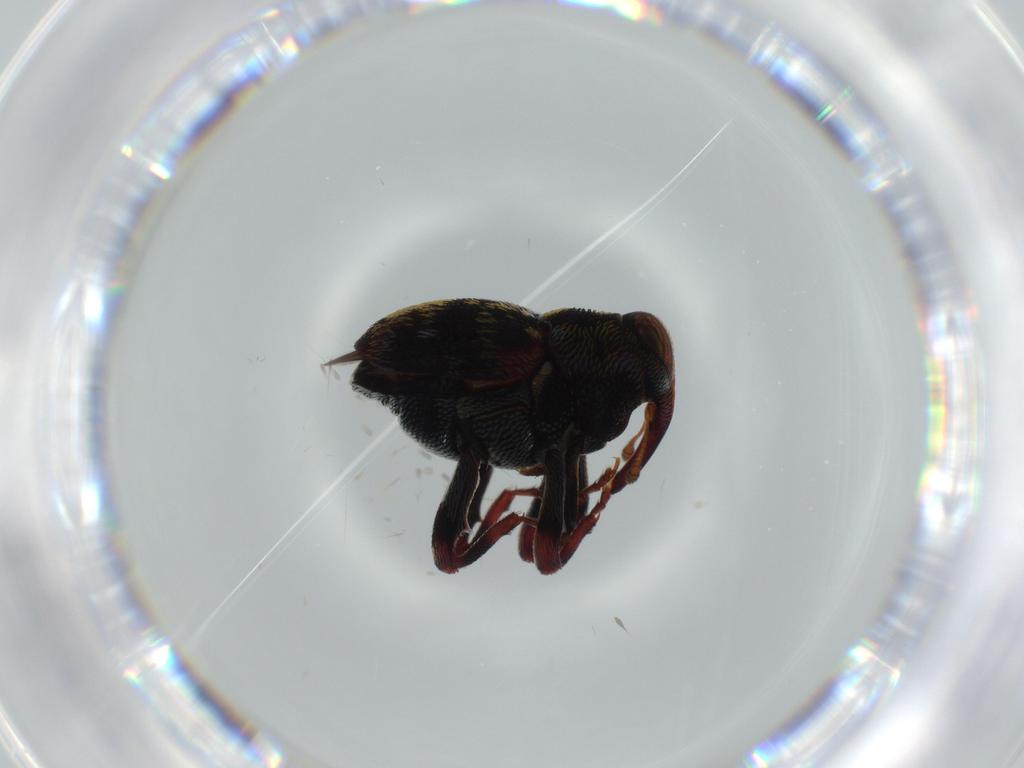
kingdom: Animalia
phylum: Arthropoda
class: Insecta
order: Coleoptera
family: Curculionidae
